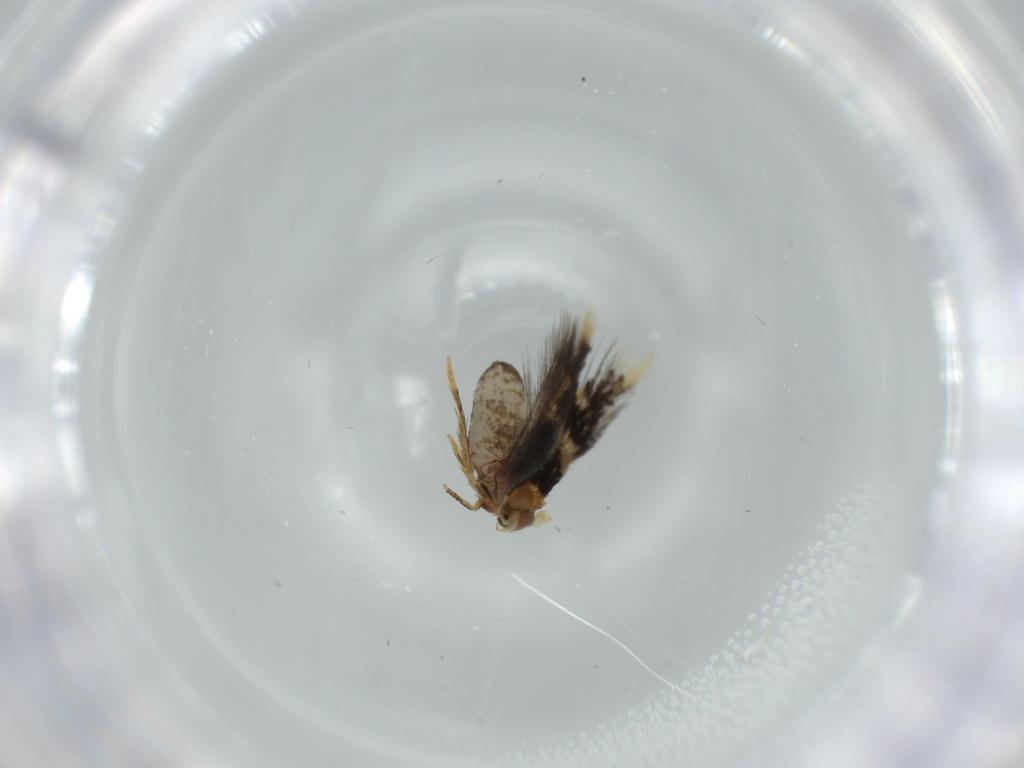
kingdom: Animalia
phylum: Arthropoda
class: Insecta
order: Lepidoptera
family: Nepticulidae
